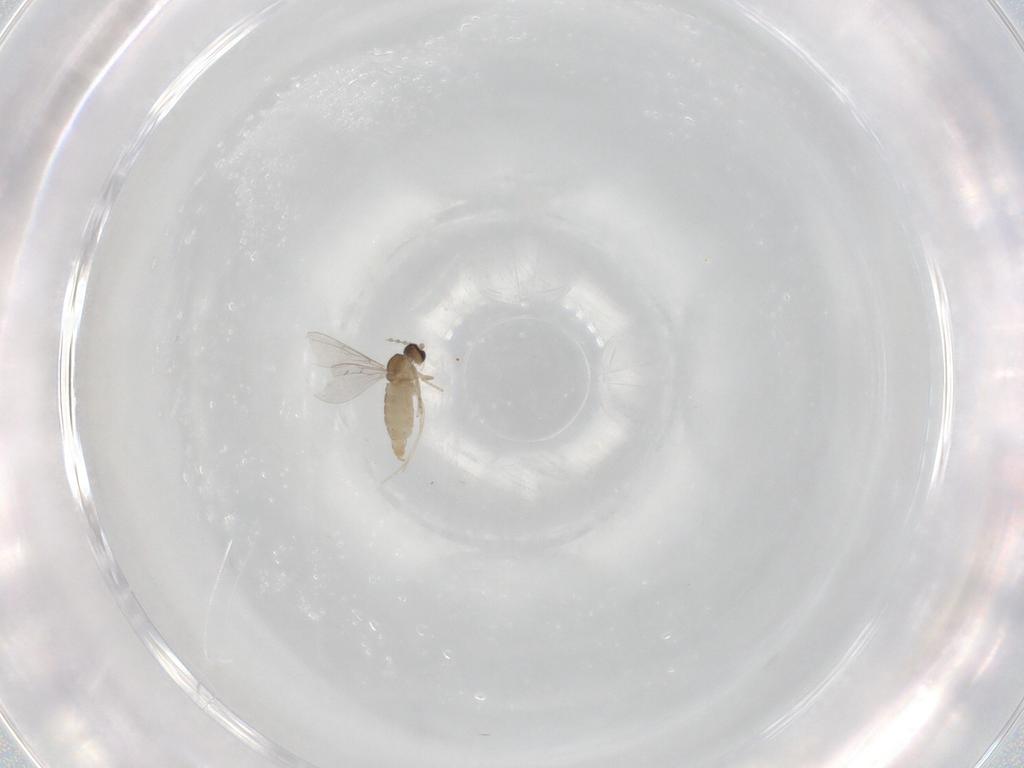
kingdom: Animalia
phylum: Arthropoda
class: Insecta
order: Diptera
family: Cecidomyiidae
